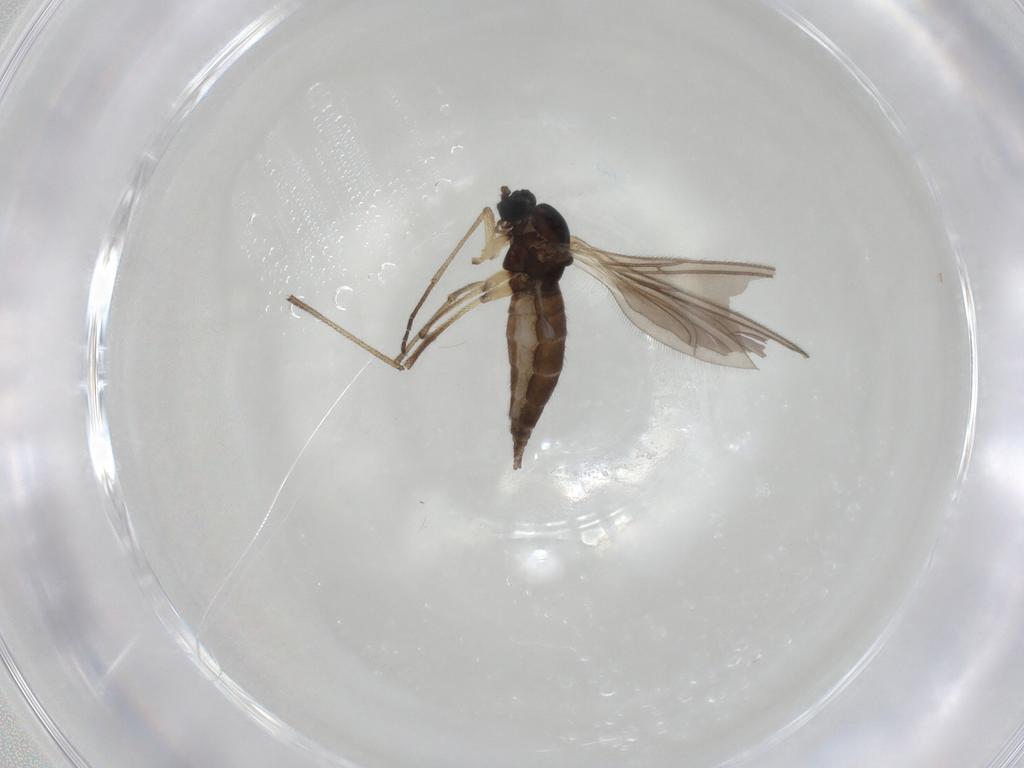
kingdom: Animalia
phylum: Arthropoda
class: Insecta
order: Diptera
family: Sciaridae
